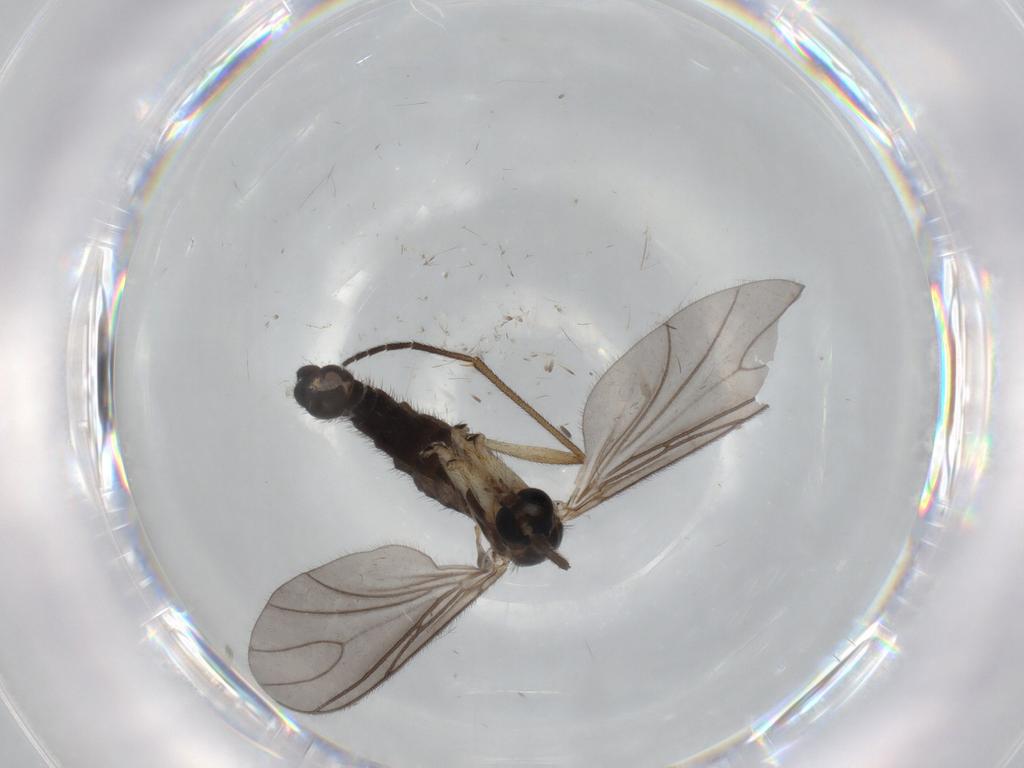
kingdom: Animalia
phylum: Arthropoda
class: Insecta
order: Diptera
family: Sciaridae
